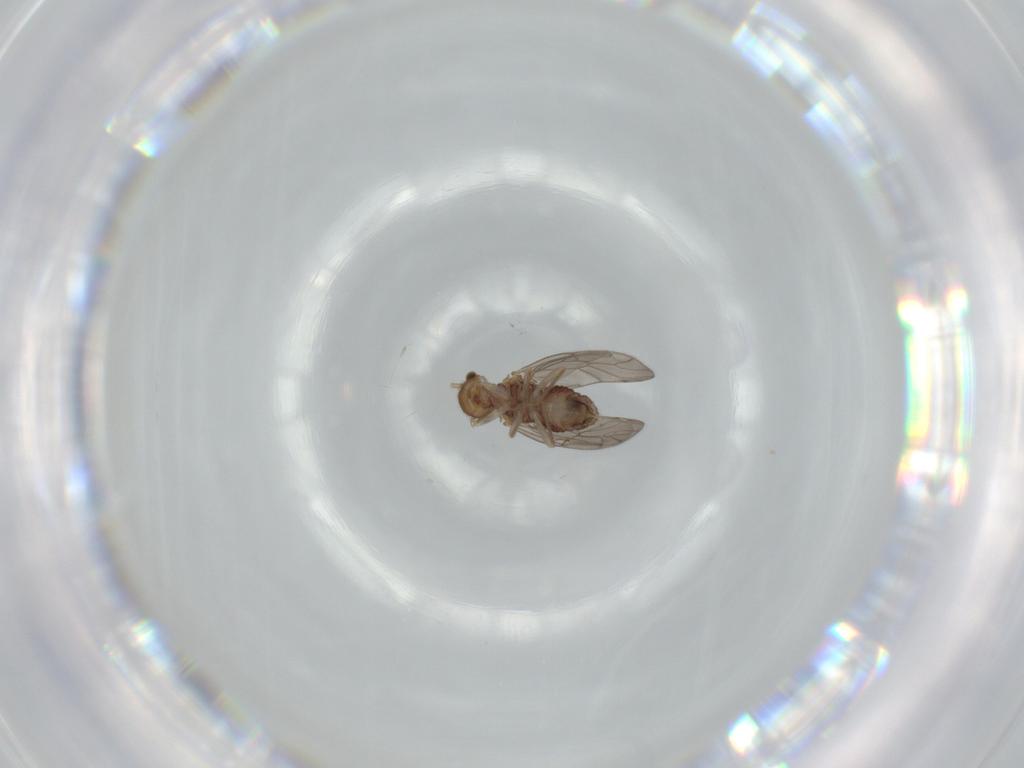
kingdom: Animalia
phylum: Arthropoda
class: Insecta
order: Psocodea
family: Ectopsocidae
